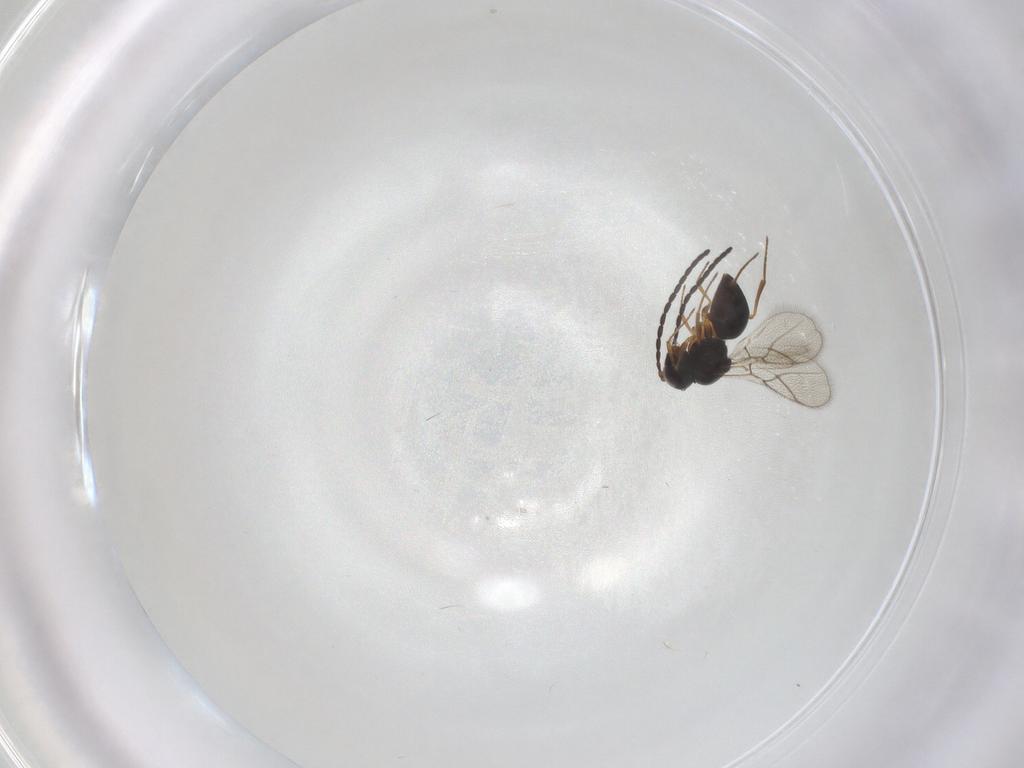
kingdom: Animalia
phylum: Arthropoda
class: Insecta
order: Hymenoptera
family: Figitidae
